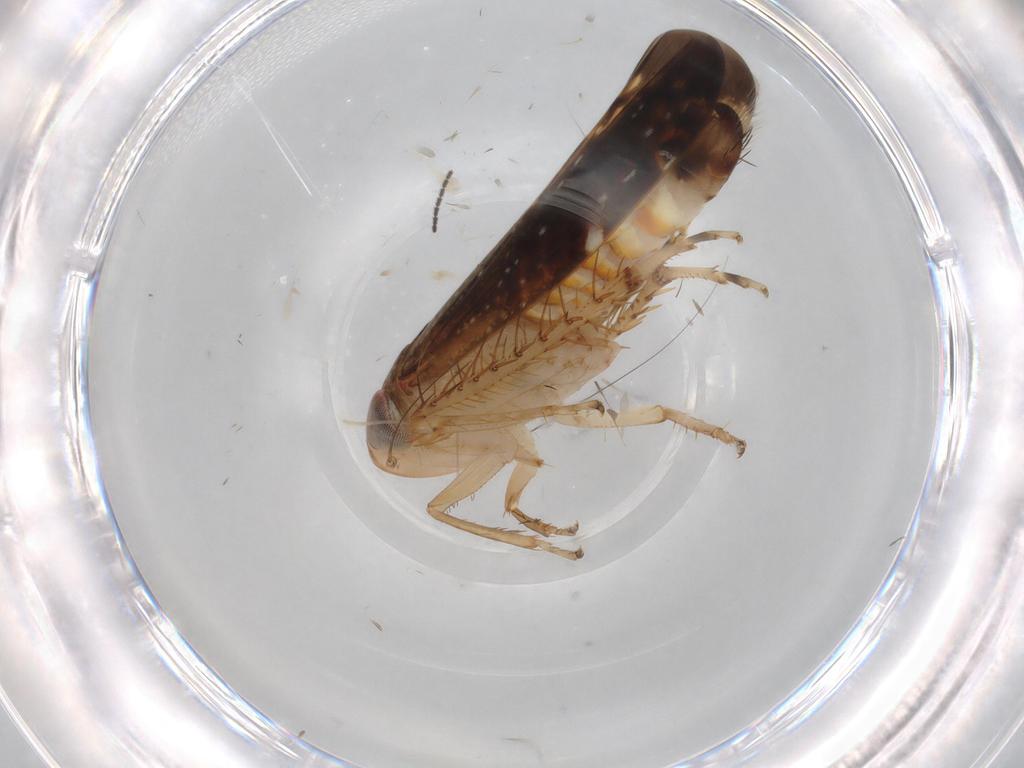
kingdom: Animalia
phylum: Arthropoda
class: Insecta
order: Hemiptera
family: Cicadellidae
